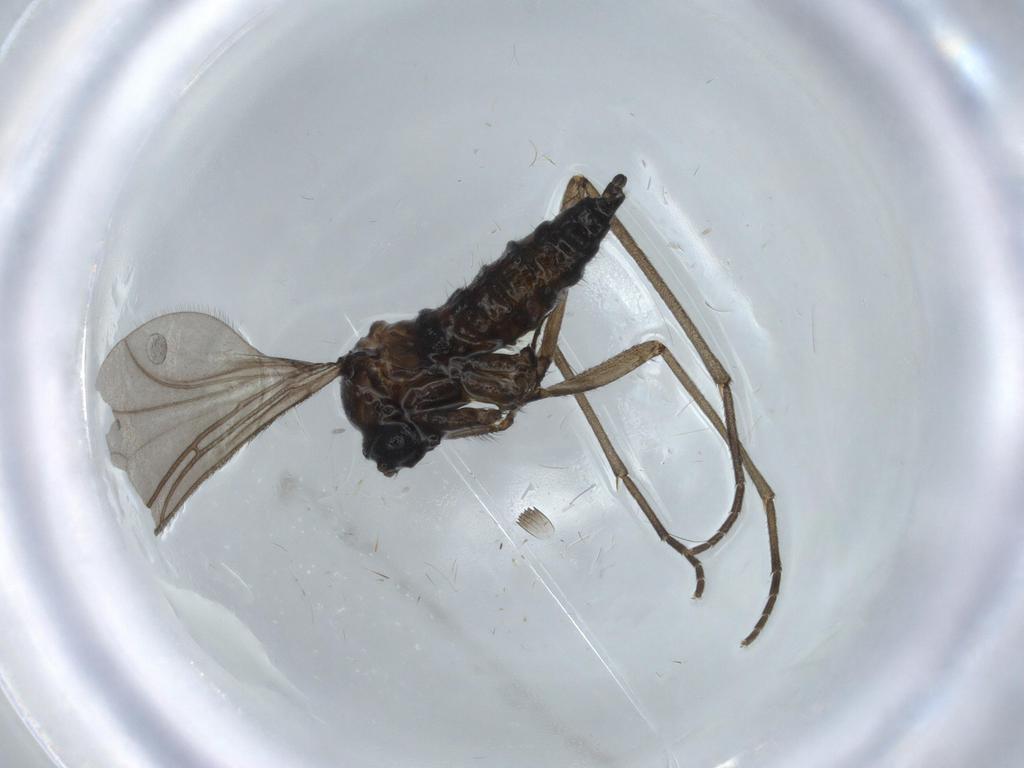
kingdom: Animalia
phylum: Arthropoda
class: Insecta
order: Diptera
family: Sciaridae
